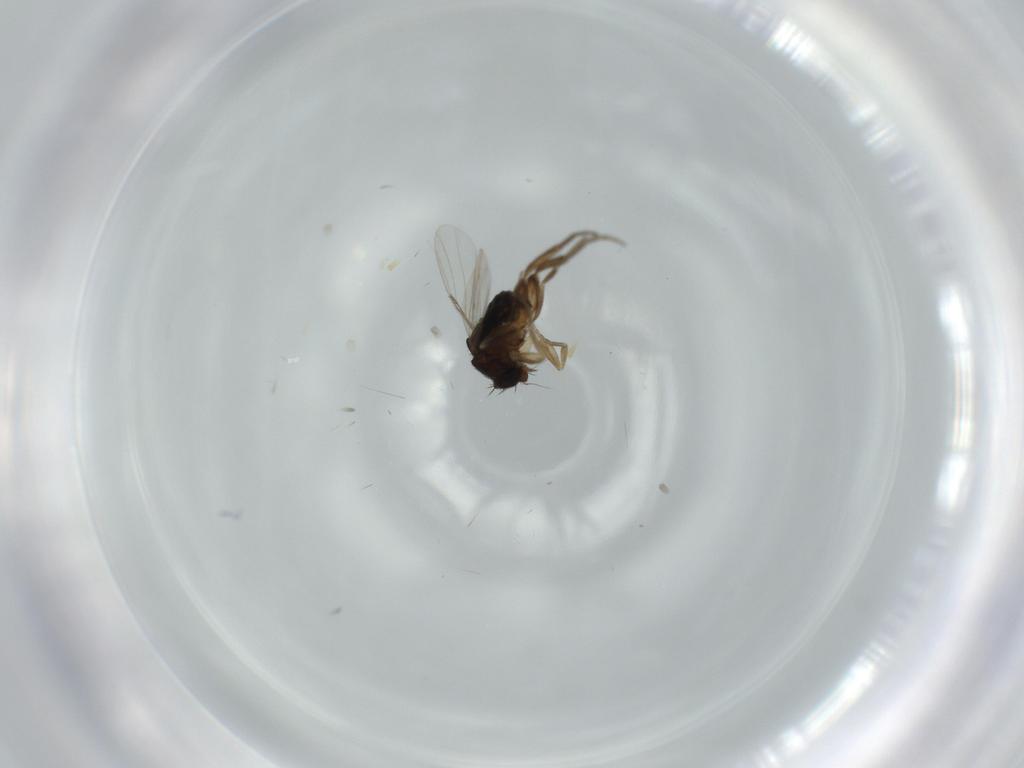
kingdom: Animalia
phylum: Arthropoda
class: Insecta
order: Diptera
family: Phoridae
